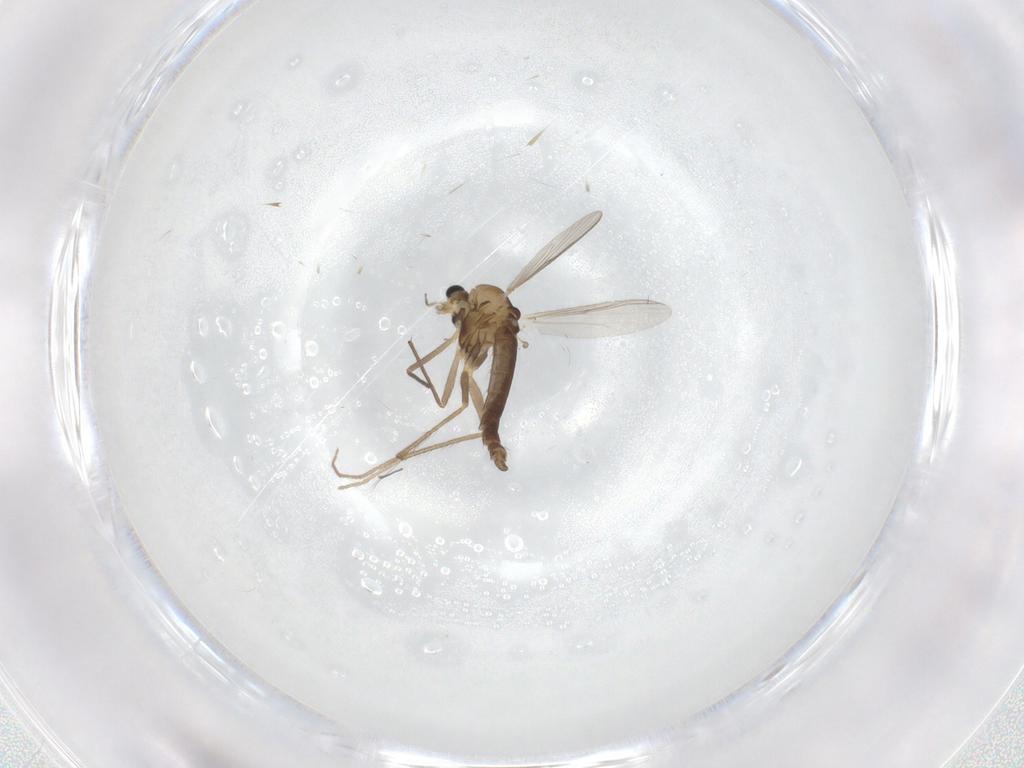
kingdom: Animalia
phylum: Arthropoda
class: Insecta
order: Diptera
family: Chironomidae
